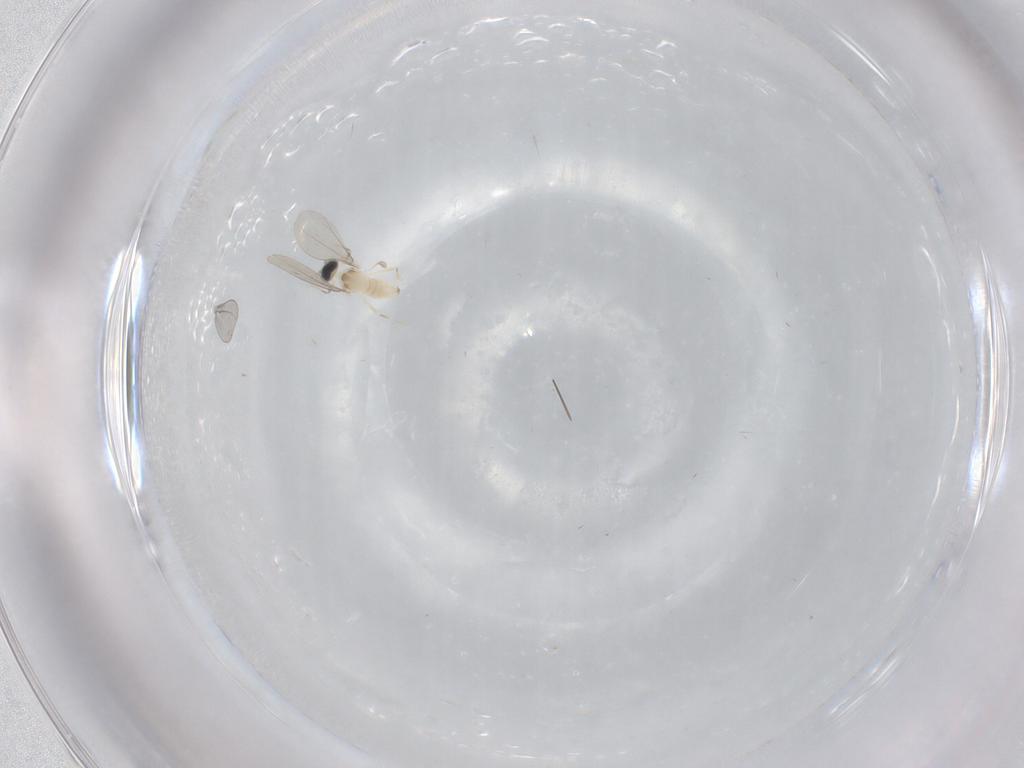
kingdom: Animalia
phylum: Arthropoda
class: Insecta
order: Diptera
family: Cecidomyiidae
